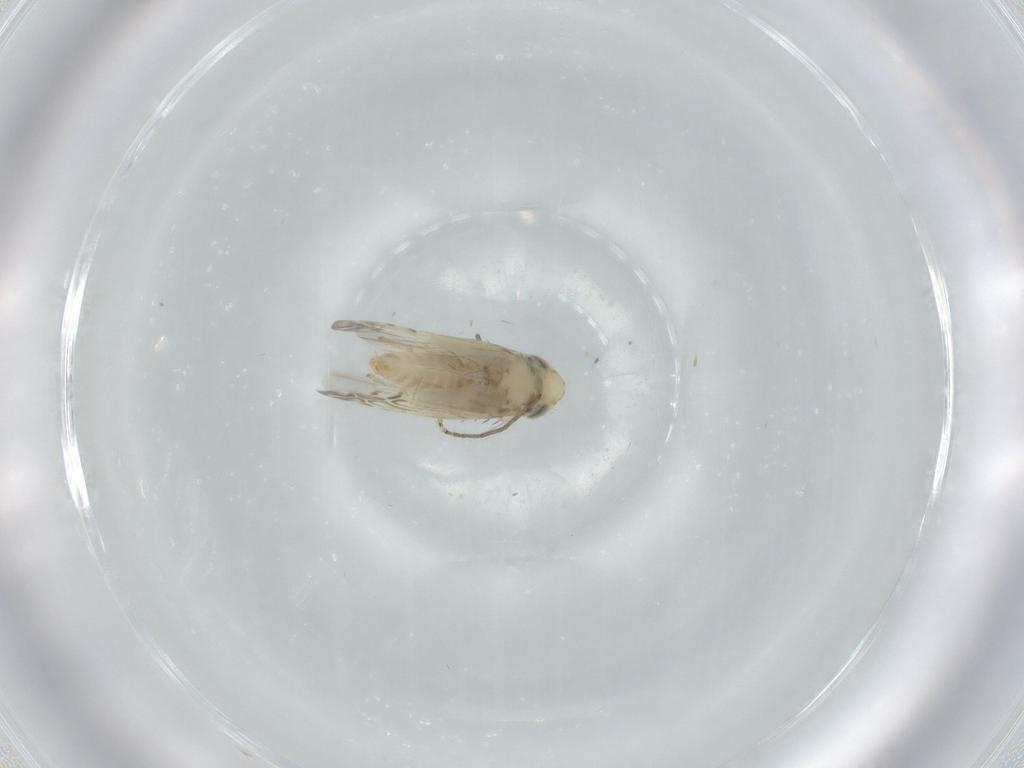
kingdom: Animalia
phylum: Arthropoda
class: Insecta
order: Hemiptera
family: Cicadellidae
